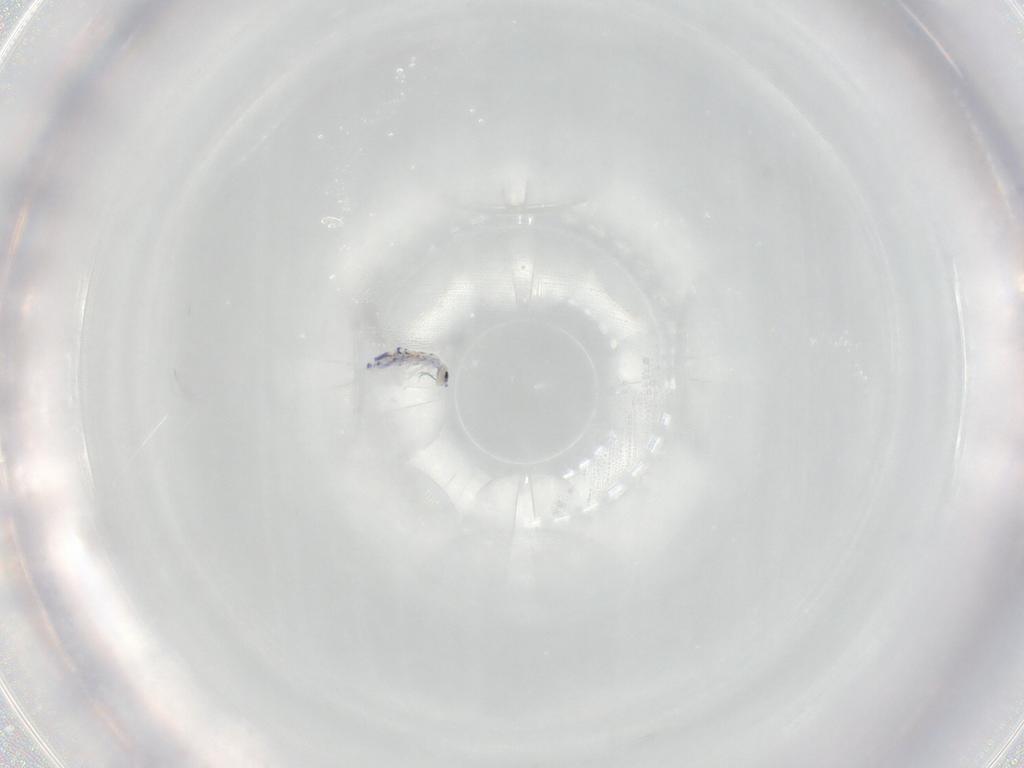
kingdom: Animalia
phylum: Arthropoda
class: Collembola
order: Entomobryomorpha
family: Entomobryidae
